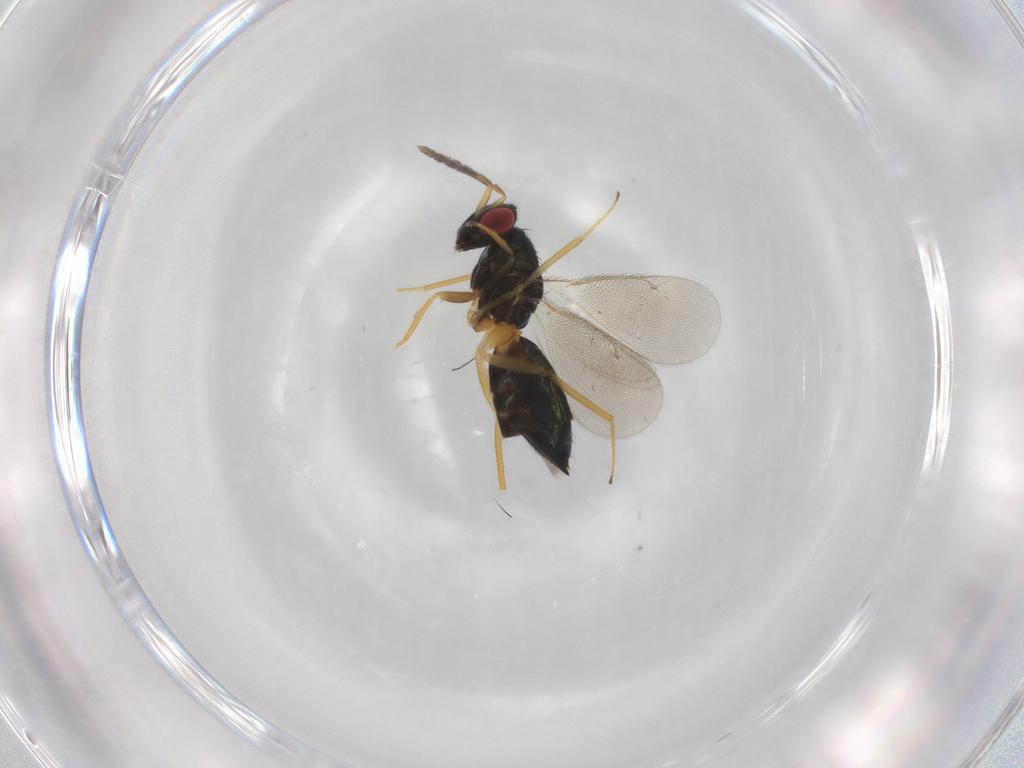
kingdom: Animalia
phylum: Arthropoda
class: Insecta
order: Hymenoptera
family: Eulophidae
